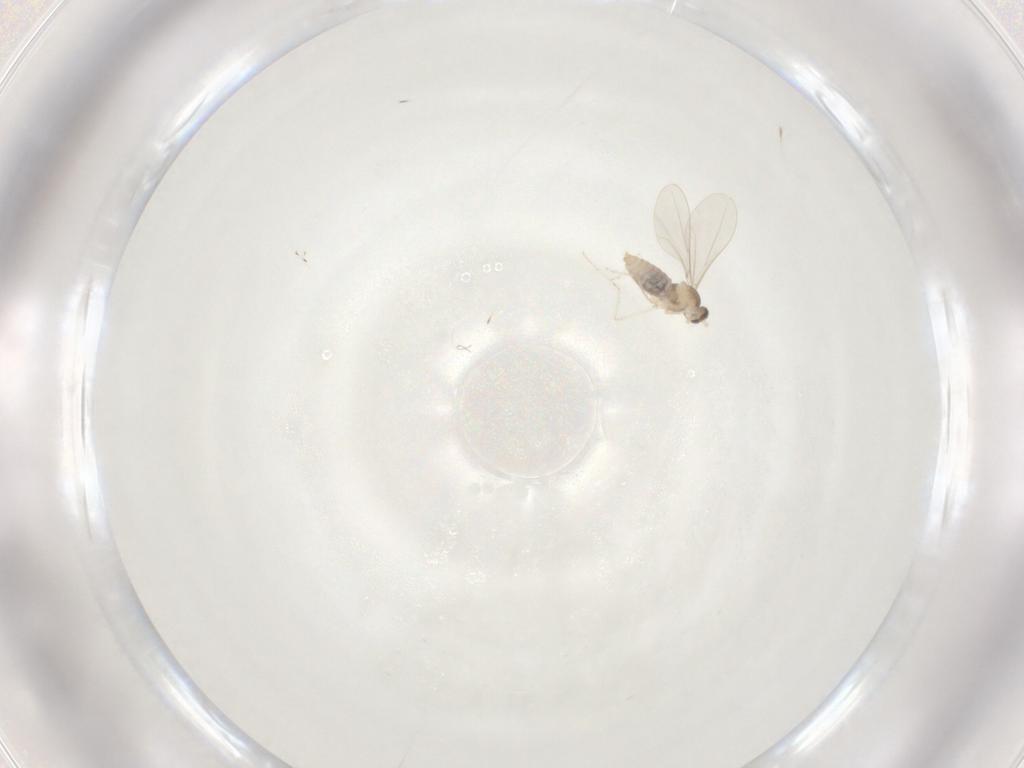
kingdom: Animalia
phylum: Arthropoda
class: Insecta
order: Diptera
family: Cecidomyiidae
